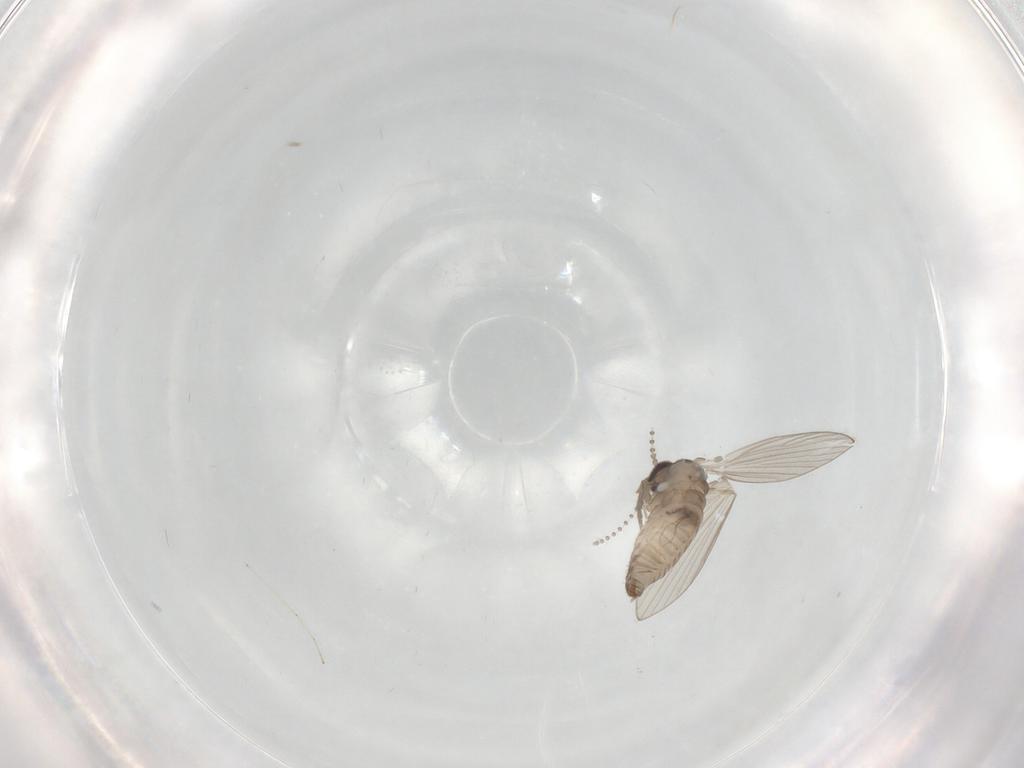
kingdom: Animalia
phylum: Arthropoda
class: Insecta
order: Diptera
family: Cecidomyiidae
